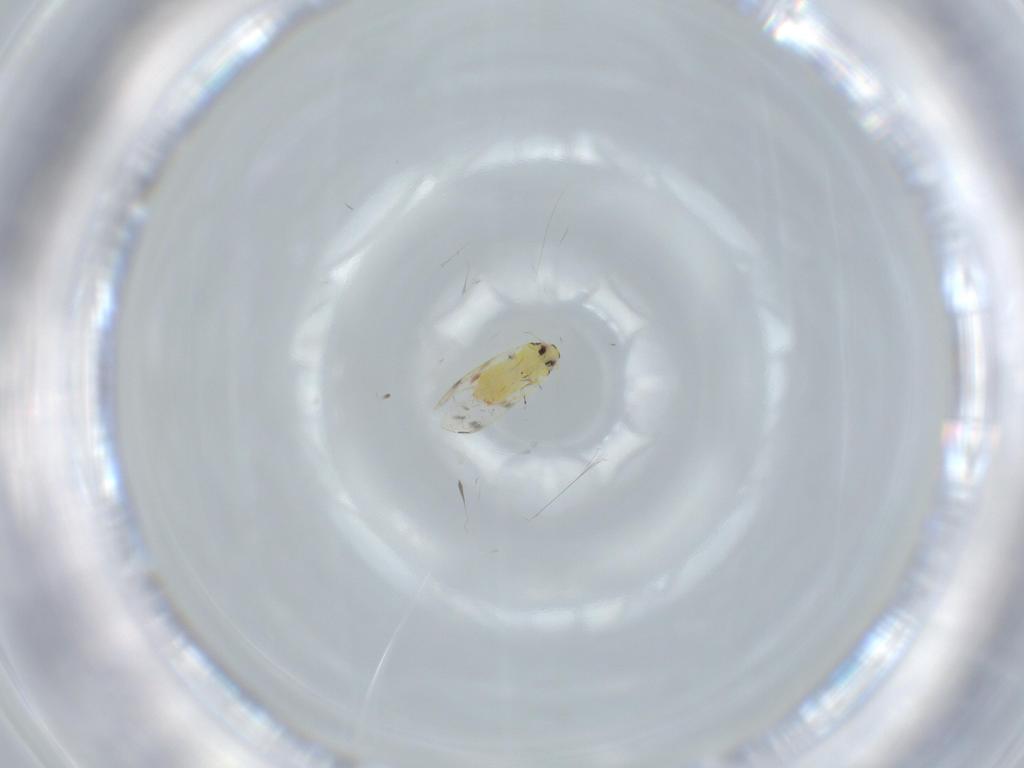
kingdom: Animalia
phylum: Arthropoda
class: Insecta
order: Hemiptera
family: Aleyrodidae
